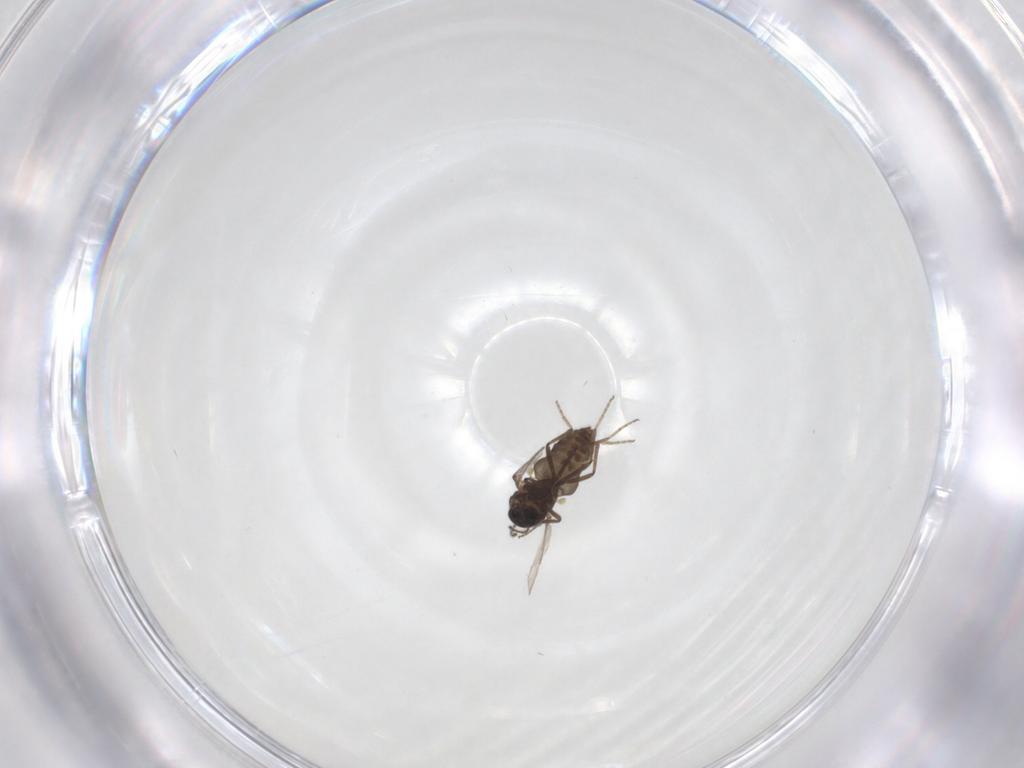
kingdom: Animalia
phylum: Arthropoda
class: Insecta
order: Diptera
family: Ceratopogonidae
